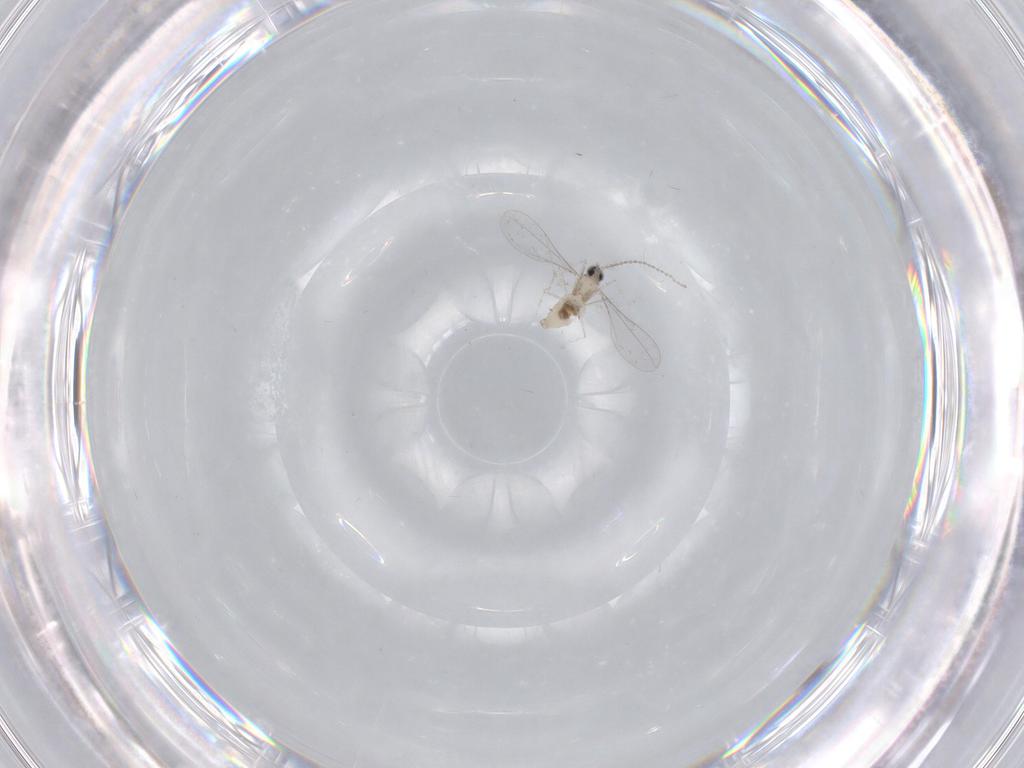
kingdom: Animalia
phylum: Arthropoda
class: Insecta
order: Diptera
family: Cecidomyiidae
